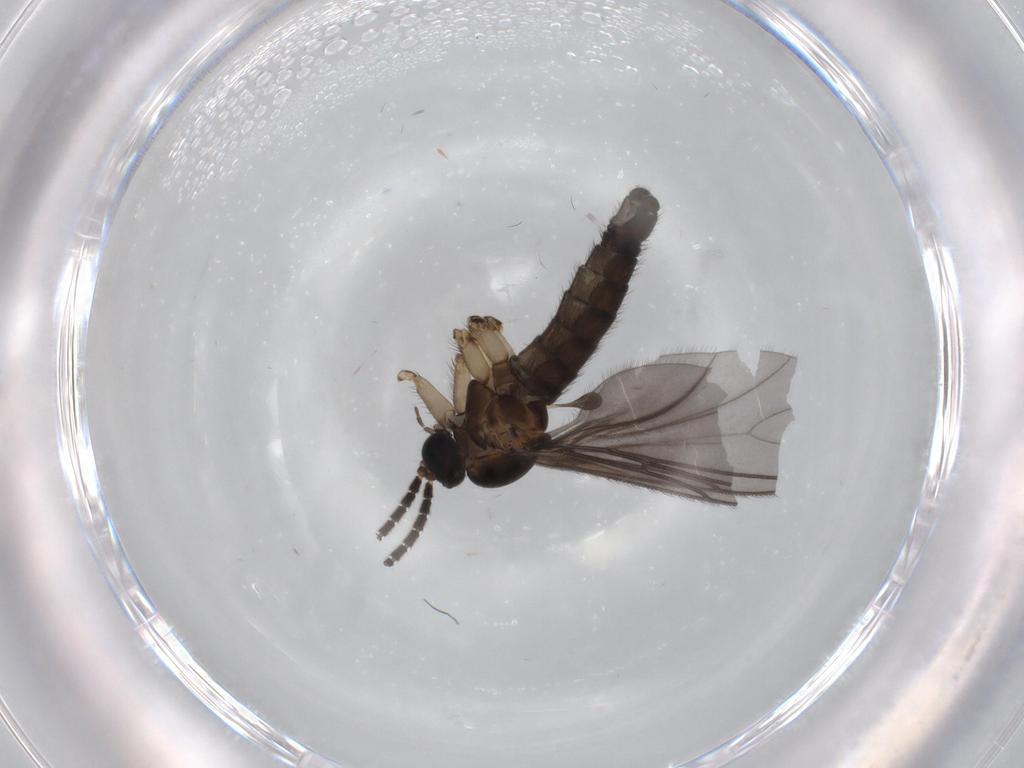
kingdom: Animalia
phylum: Arthropoda
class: Insecta
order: Diptera
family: Sciaridae
